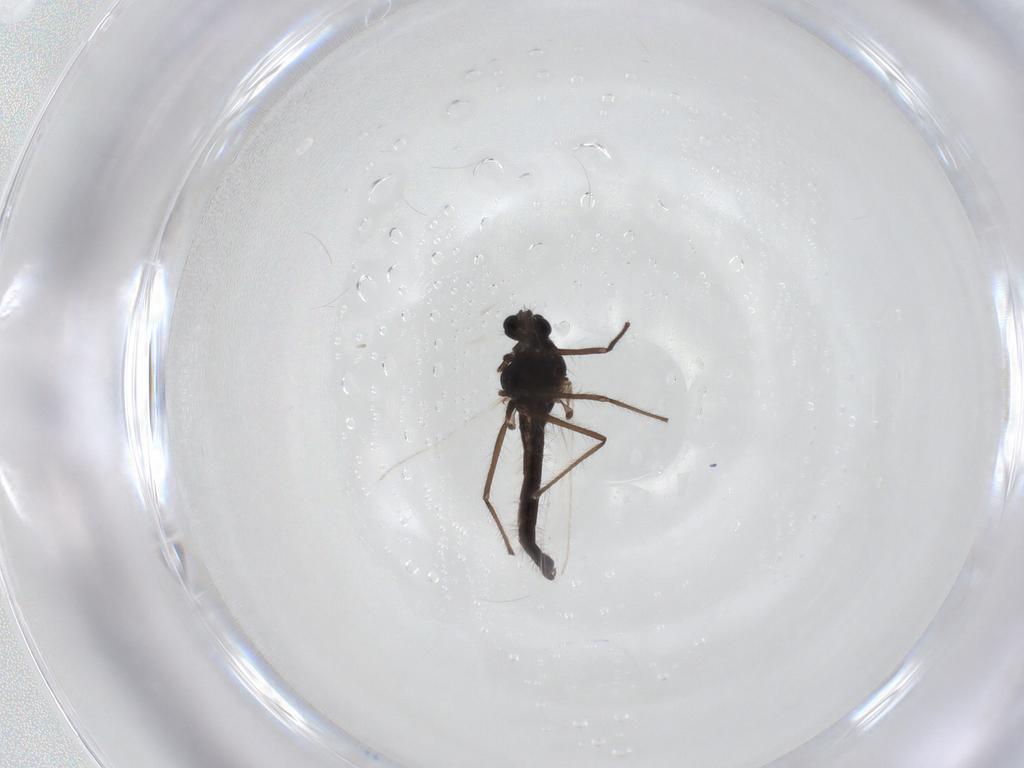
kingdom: Animalia
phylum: Arthropoda
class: Insecta
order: Diptera
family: Chironomidae
